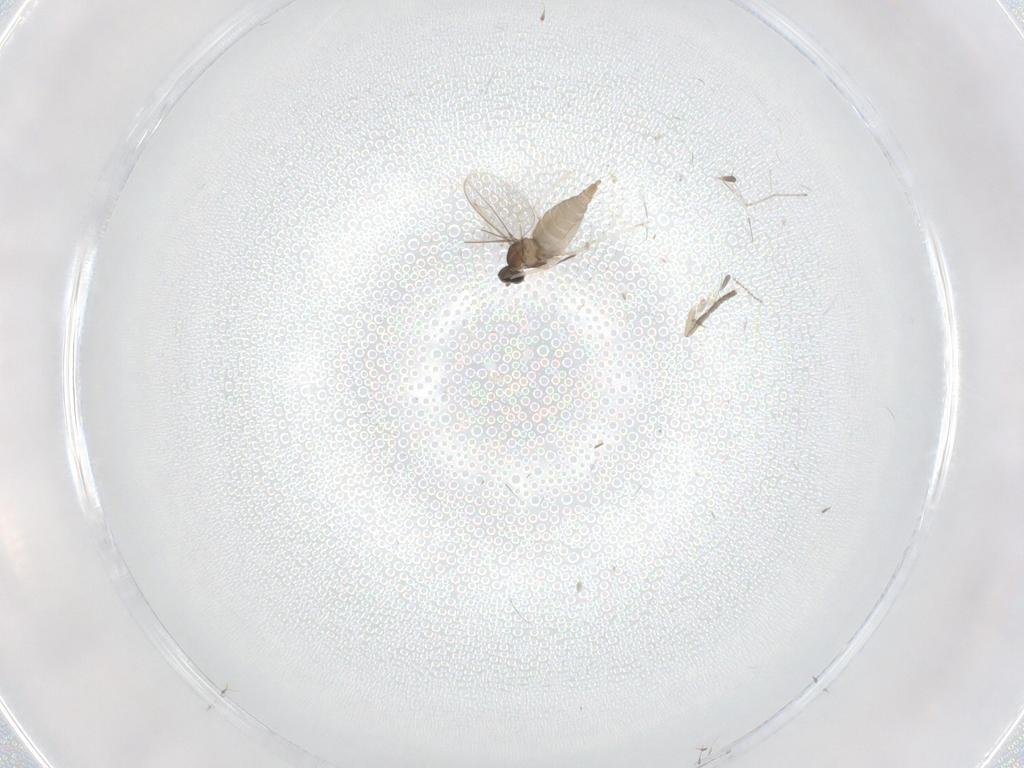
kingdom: Animalia
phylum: Arthropoda
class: Insecta
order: Diptera
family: Cecidomyiidae
